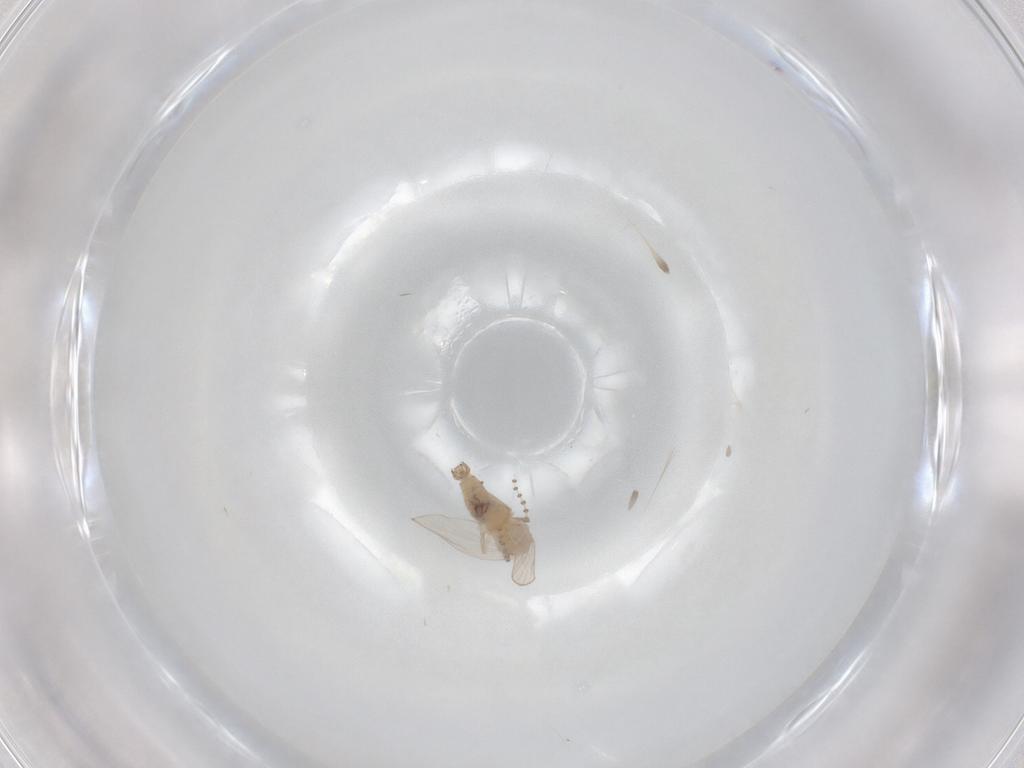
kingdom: Animalia
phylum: Arthropoda
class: Insecta
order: Diptera
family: Psychodidae
